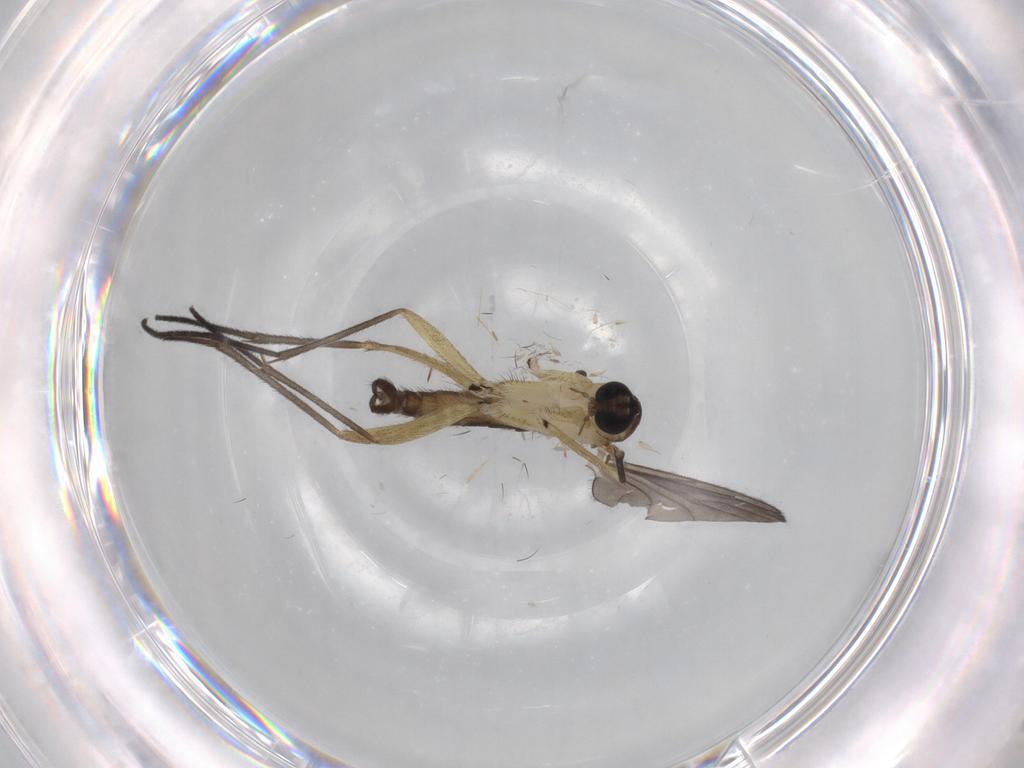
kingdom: Animalia
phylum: Arthropoda
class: Insecta
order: Diptera
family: Sciaridae
